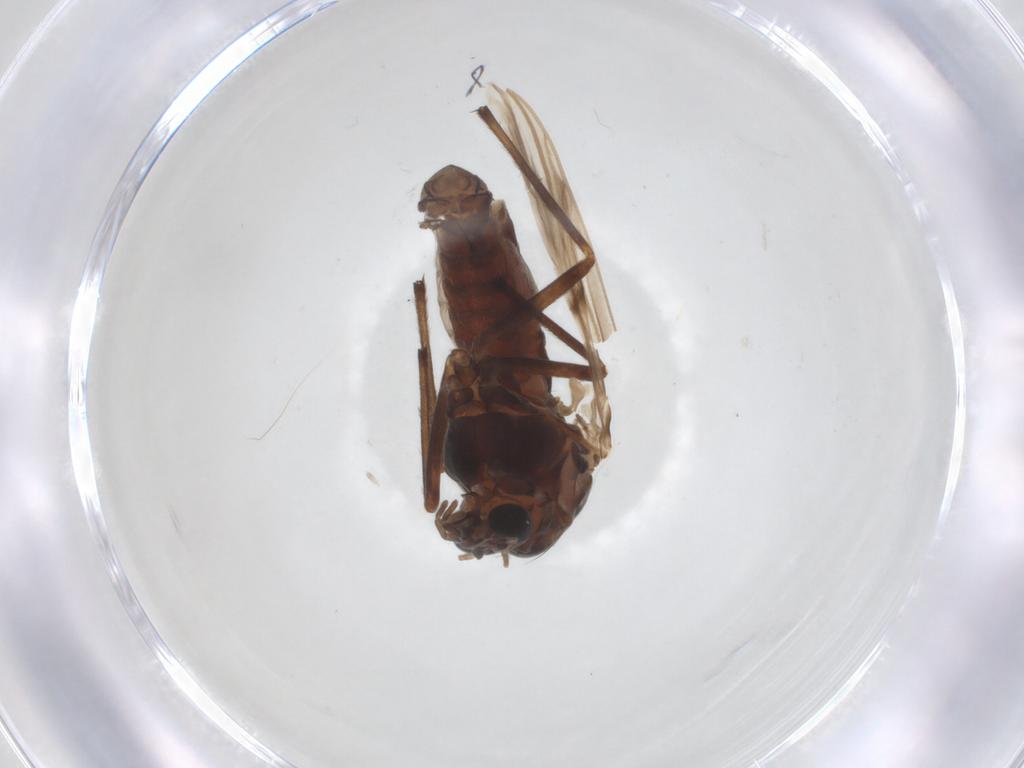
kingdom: Animalia
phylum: Arthropoda
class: Insecta
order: Diptera
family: Chironomidae
